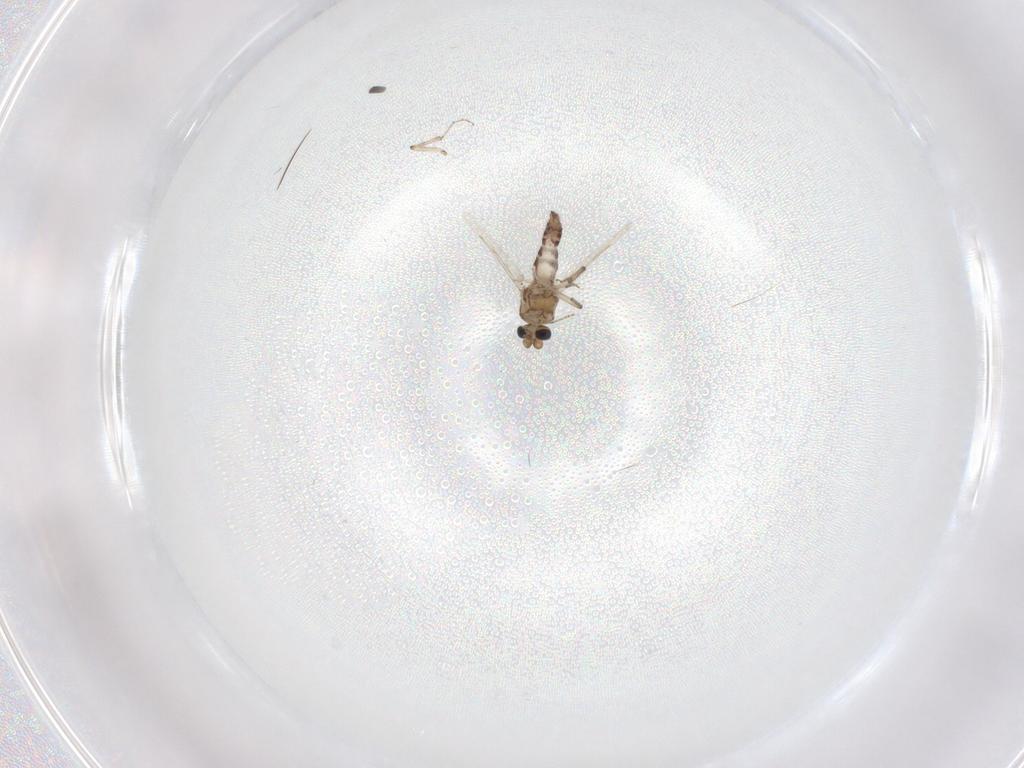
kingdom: Animalia
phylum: Arthropoda
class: Insecta
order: Diptera
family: Ceratopogonidae
